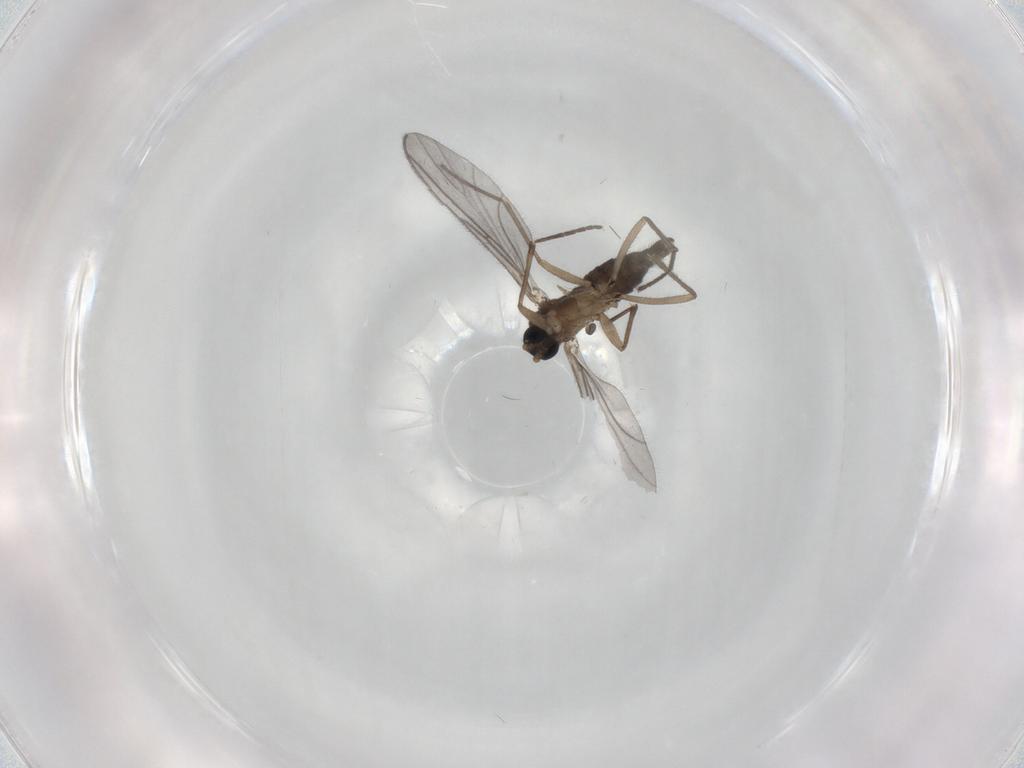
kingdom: Animalia
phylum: Arthropoda
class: Insecta
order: Diptera
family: Sciaridae
